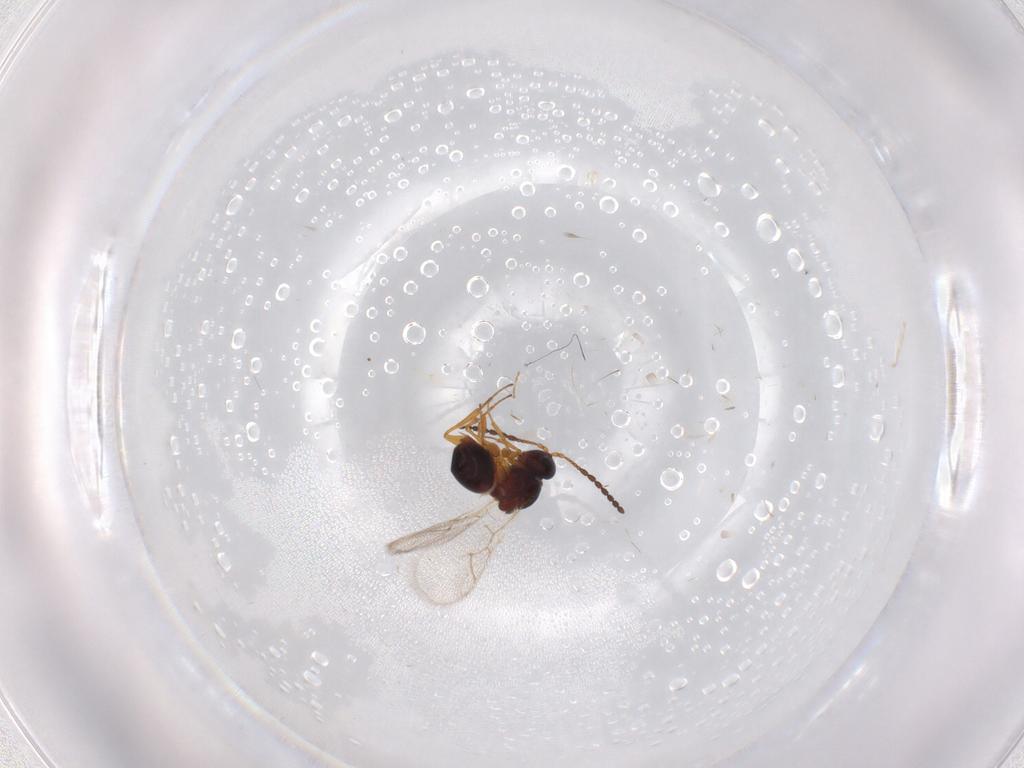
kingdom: Animalia
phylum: Arthropoda
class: Insecta
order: Hymenoptera
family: Figitidae
